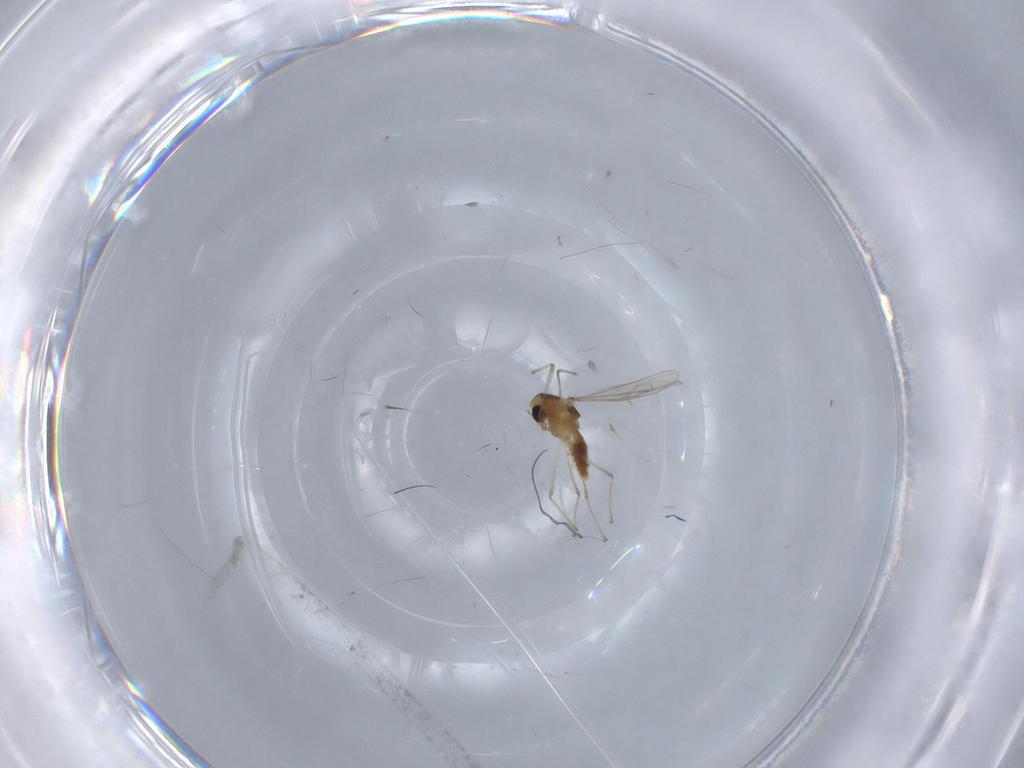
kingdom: Animalia
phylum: Arthropoda
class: Insecta
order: Diptera
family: Chironomidae
